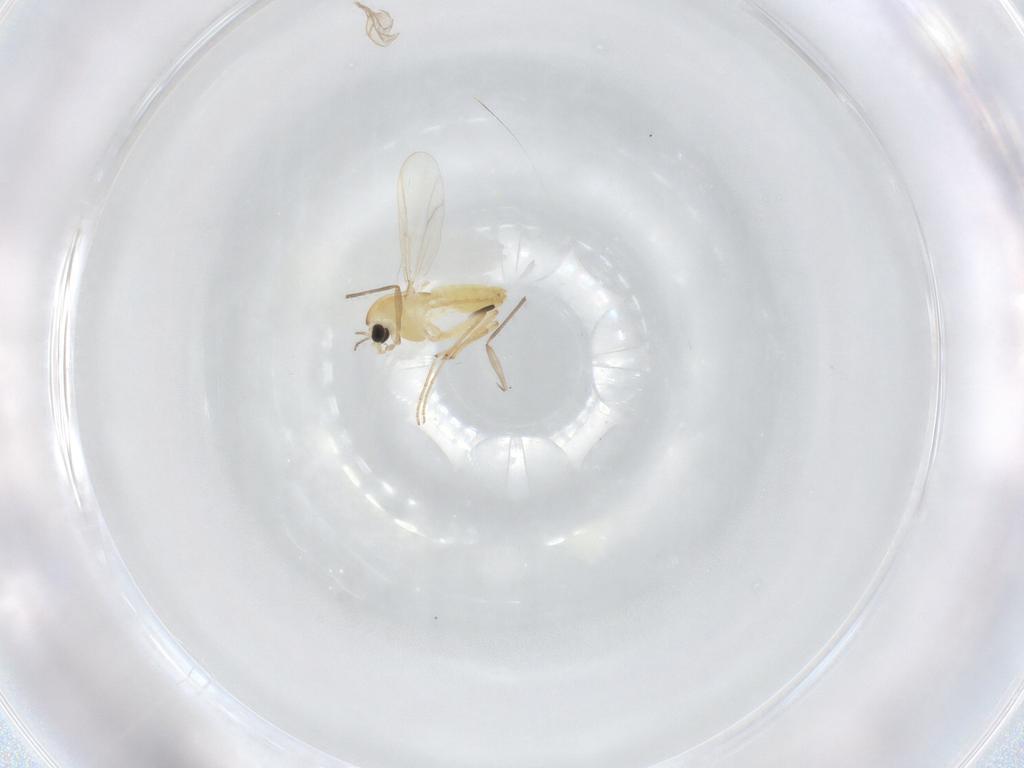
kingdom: Animalia
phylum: Arthropoda
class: Insecta
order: Diptera
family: Chironomidae
